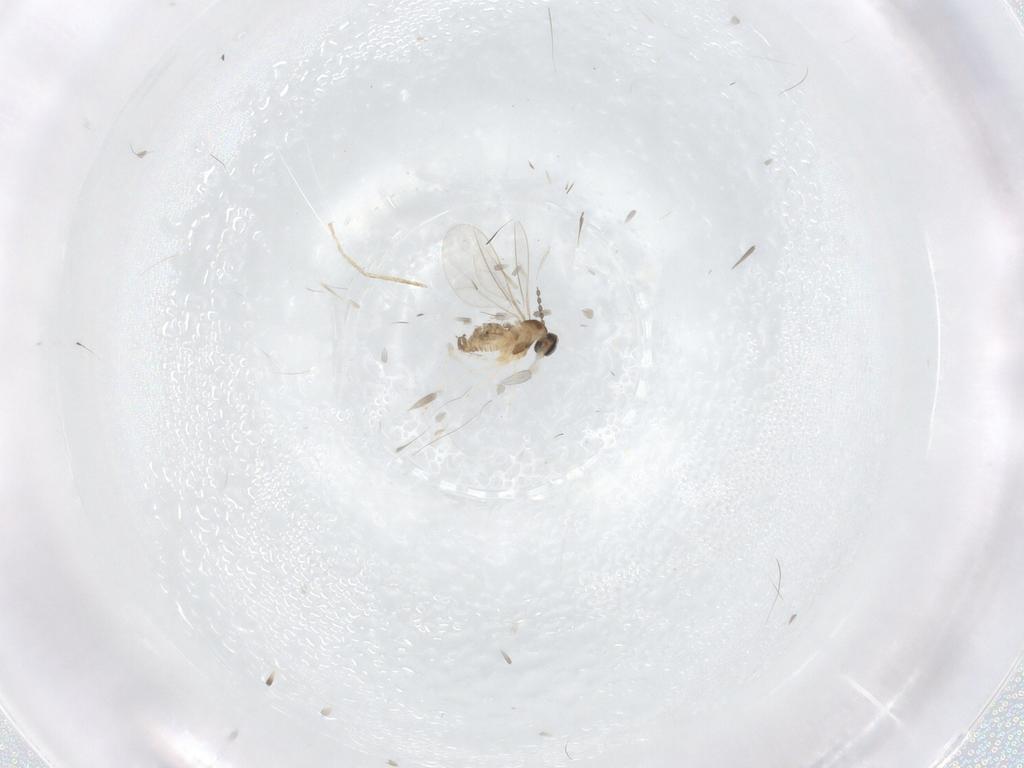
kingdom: Animalia
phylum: Arthropoda
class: Insecta
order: Diptera
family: Cecidomyiidae
